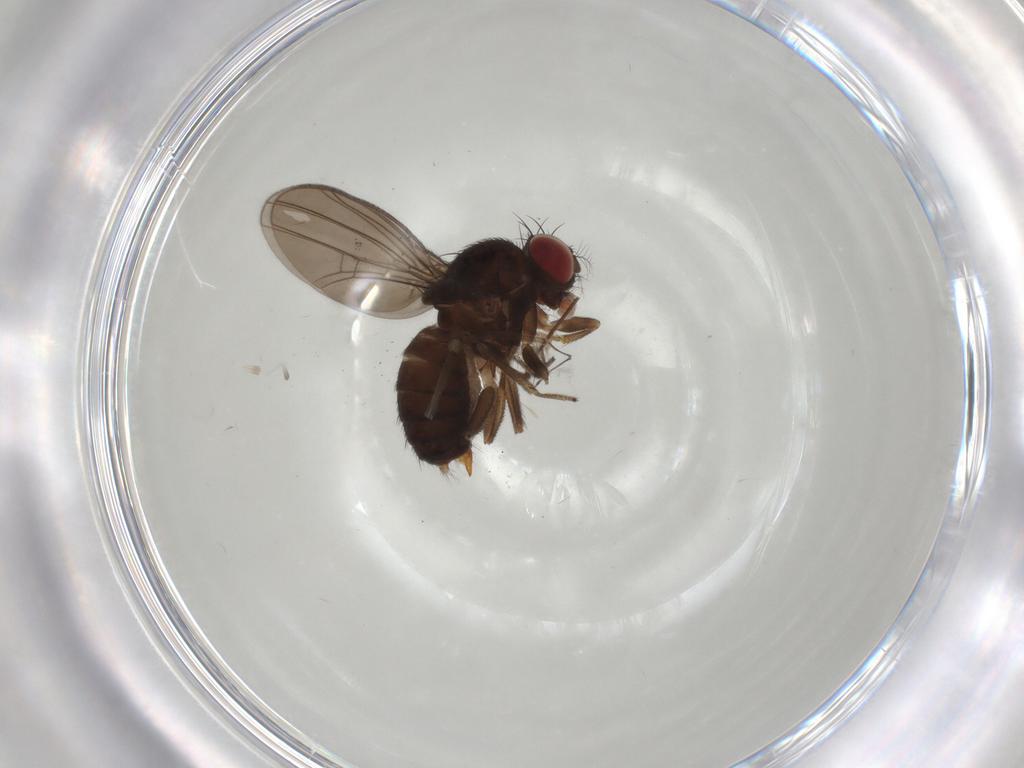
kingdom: Animalia
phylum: Arthropoda
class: Insecta
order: Diptera
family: Drosophilidae
